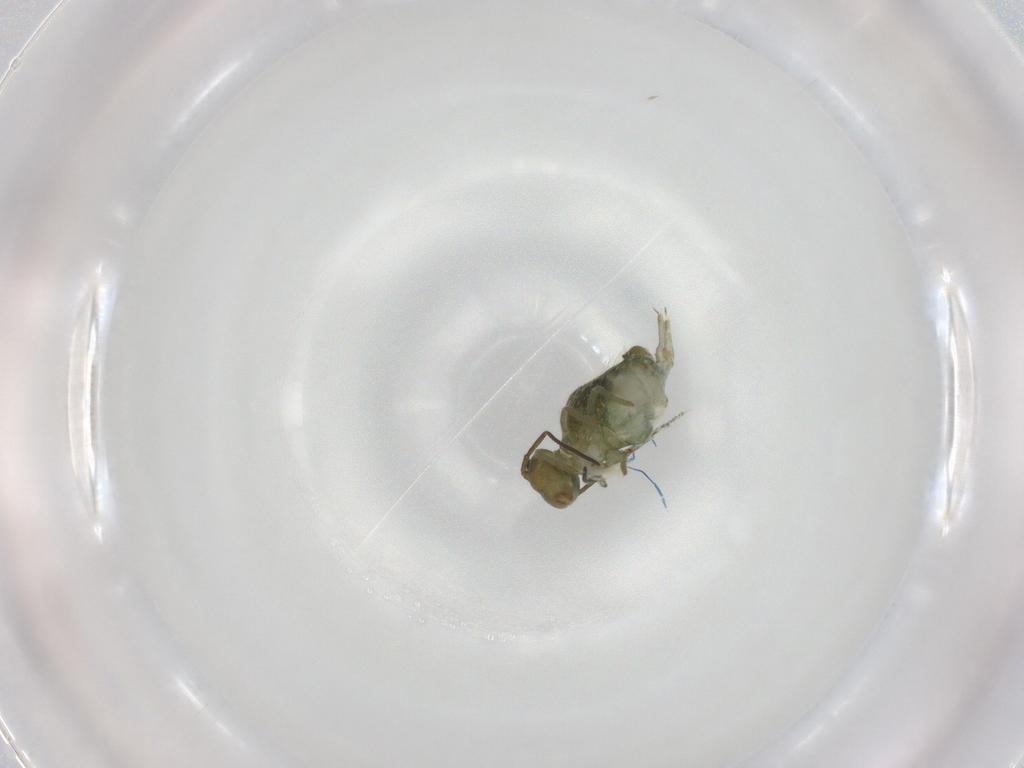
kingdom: Animalia
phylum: Arthropoda
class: Collembola
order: Symphypleona
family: Sminthuridae
